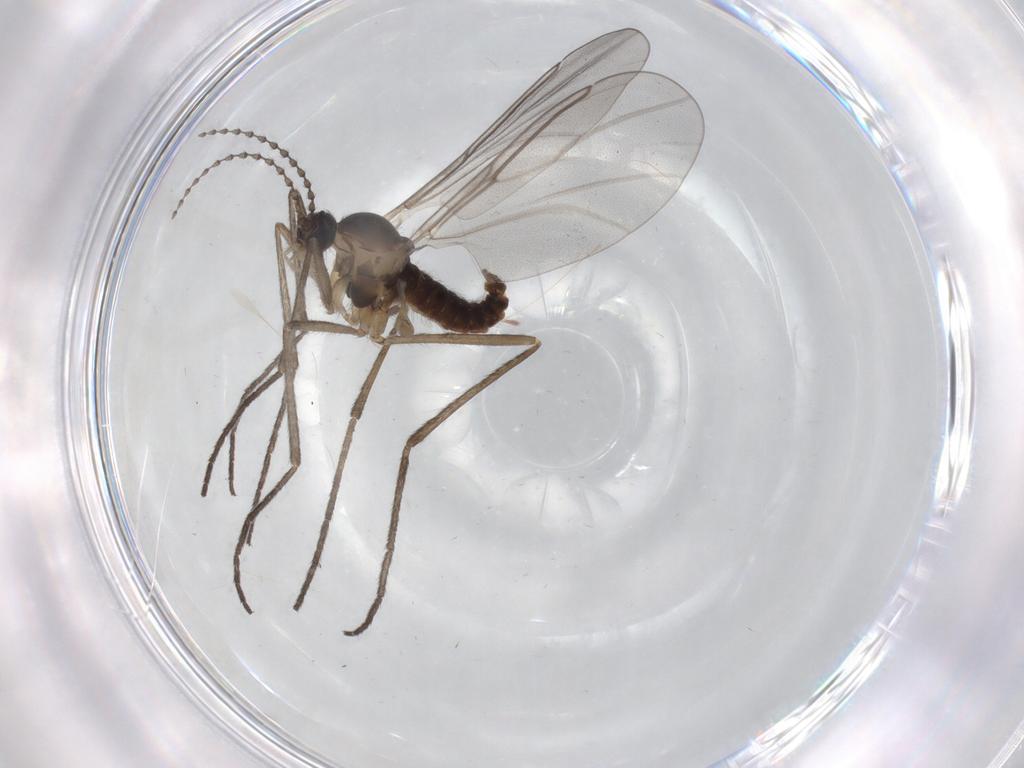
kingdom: Animalia
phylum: Arthropoda
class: Insecta
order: Diptera
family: Cecidomyiidae
